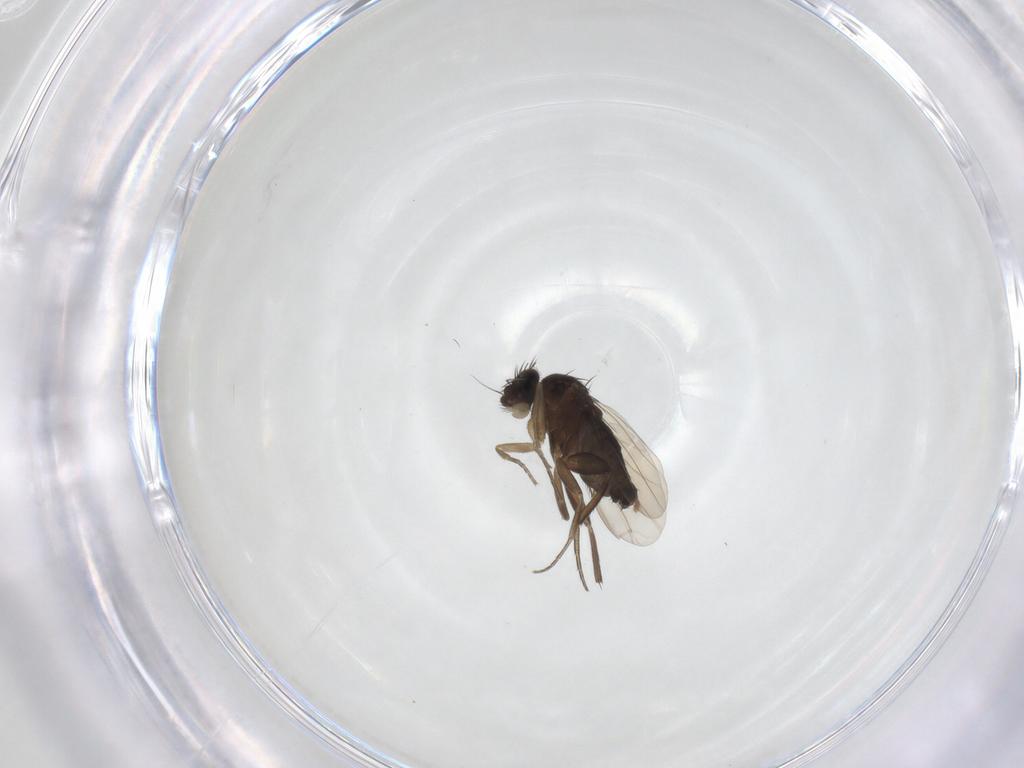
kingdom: Animalia
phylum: Arthropoda
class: Insecta
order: Diptera
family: Phoridae
